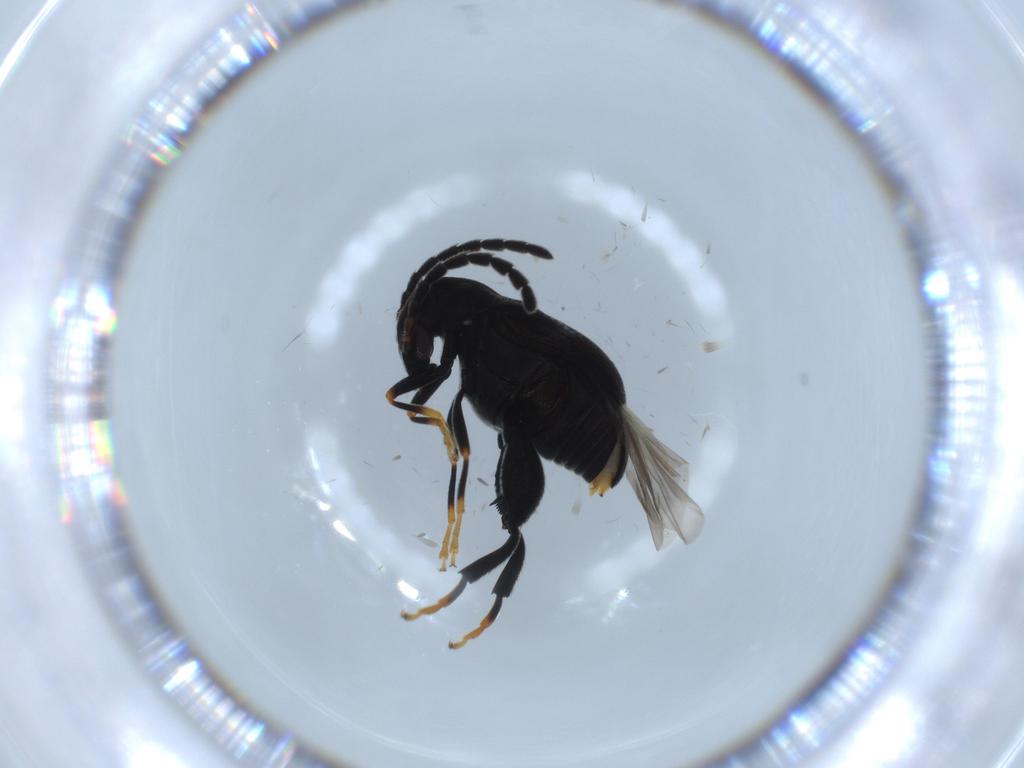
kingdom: Animalia
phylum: Arthropoda
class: Insecta
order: Coleoptera
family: Chrysomelidae
